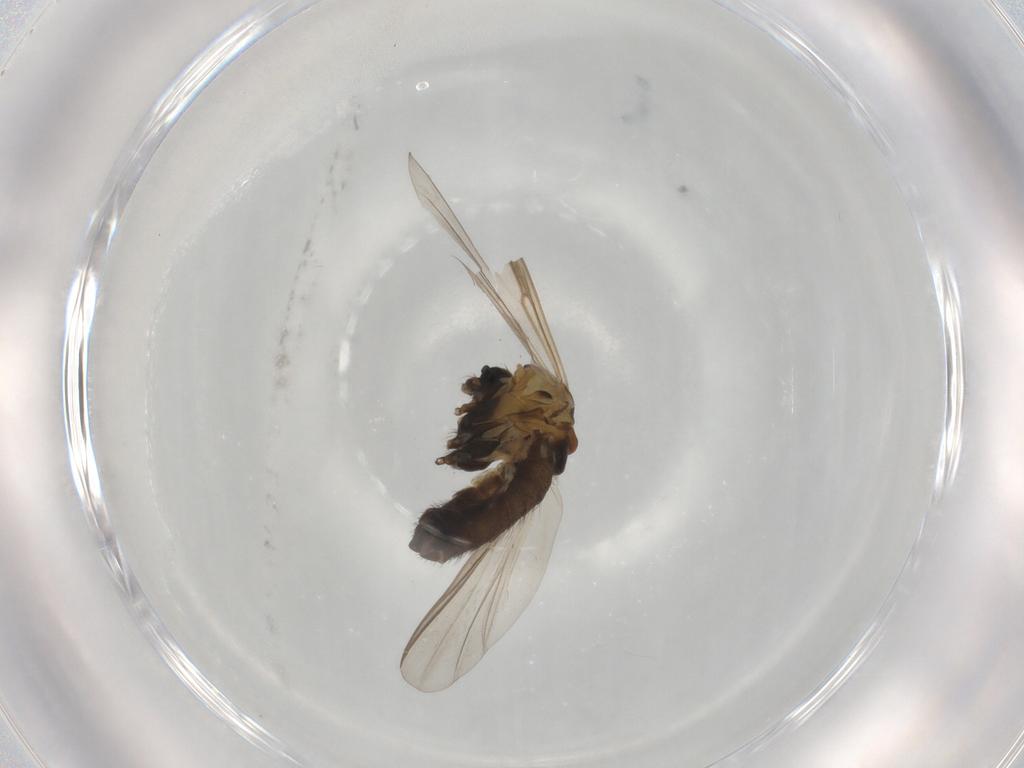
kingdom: Animalia
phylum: Arthropoda
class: Insecta
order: Diptera
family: Chironomidae
